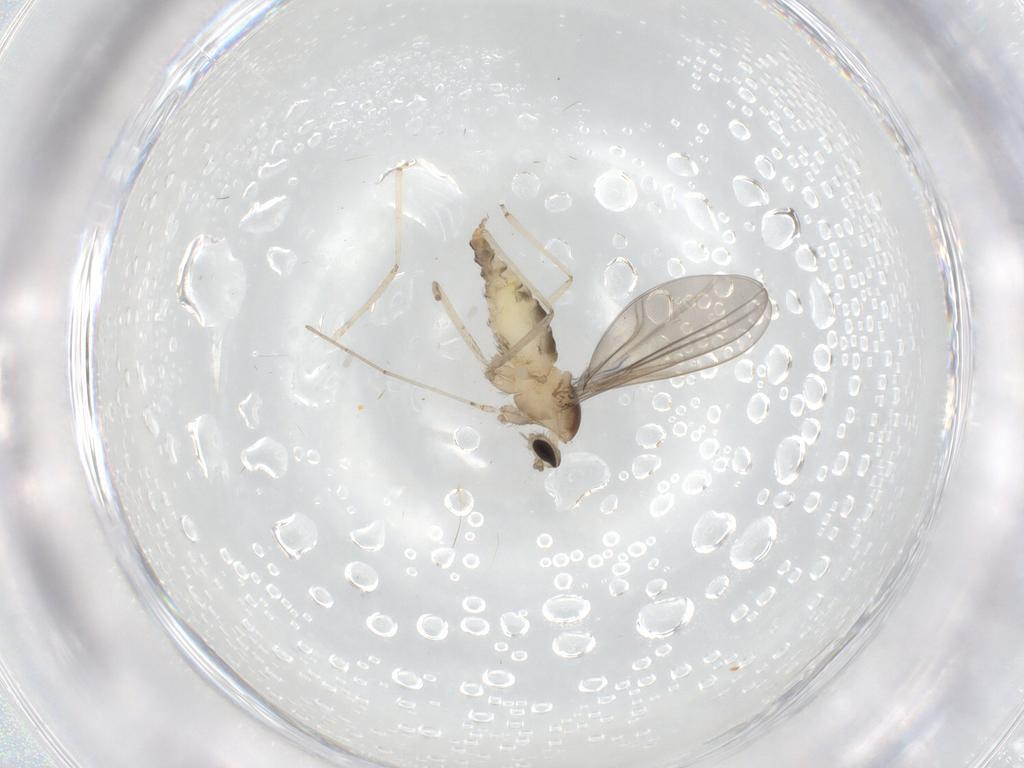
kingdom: Animalia
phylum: Arthropoda
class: Insecta
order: Diptera
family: Cecidomyiidae
